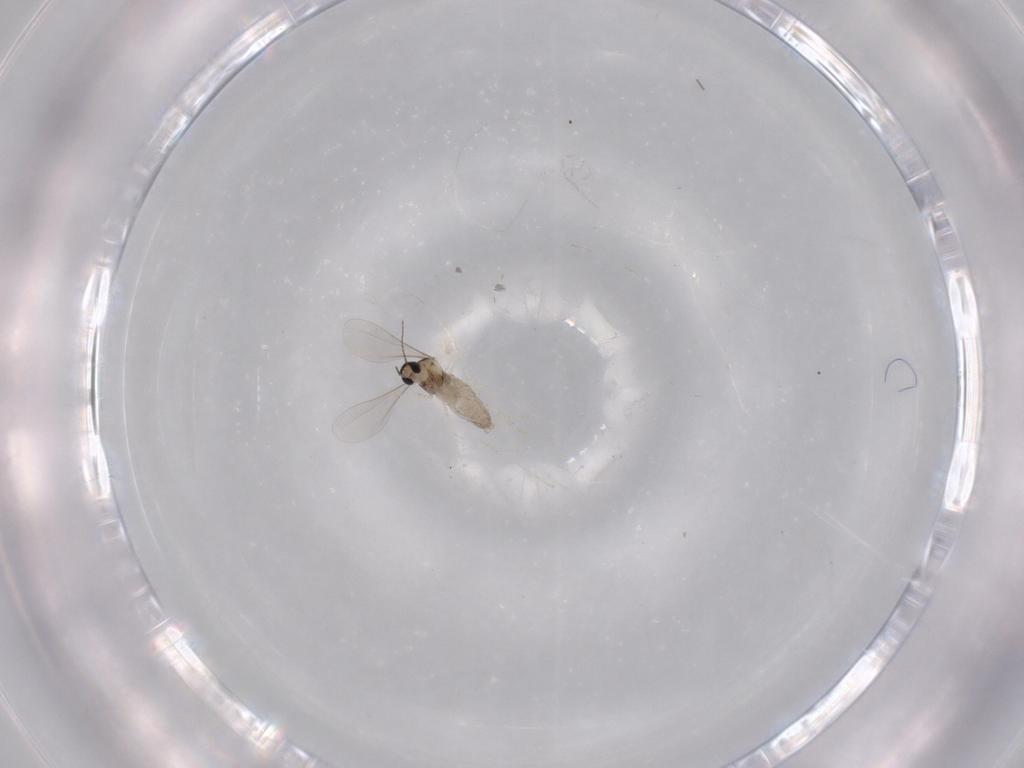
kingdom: Animalia
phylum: Arthropoda
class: Insecta
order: Diptera
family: Cecidomyiidae
